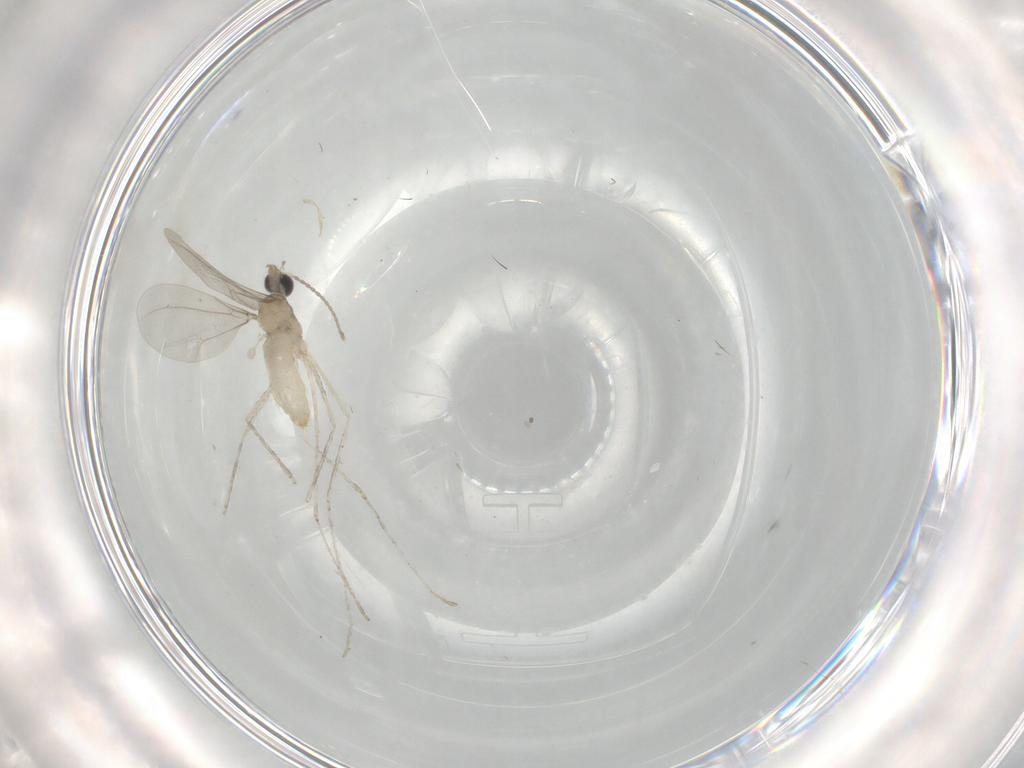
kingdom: Animalia
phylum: Arthropoda
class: Insecta
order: Diptera
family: Cecidomyiidae
